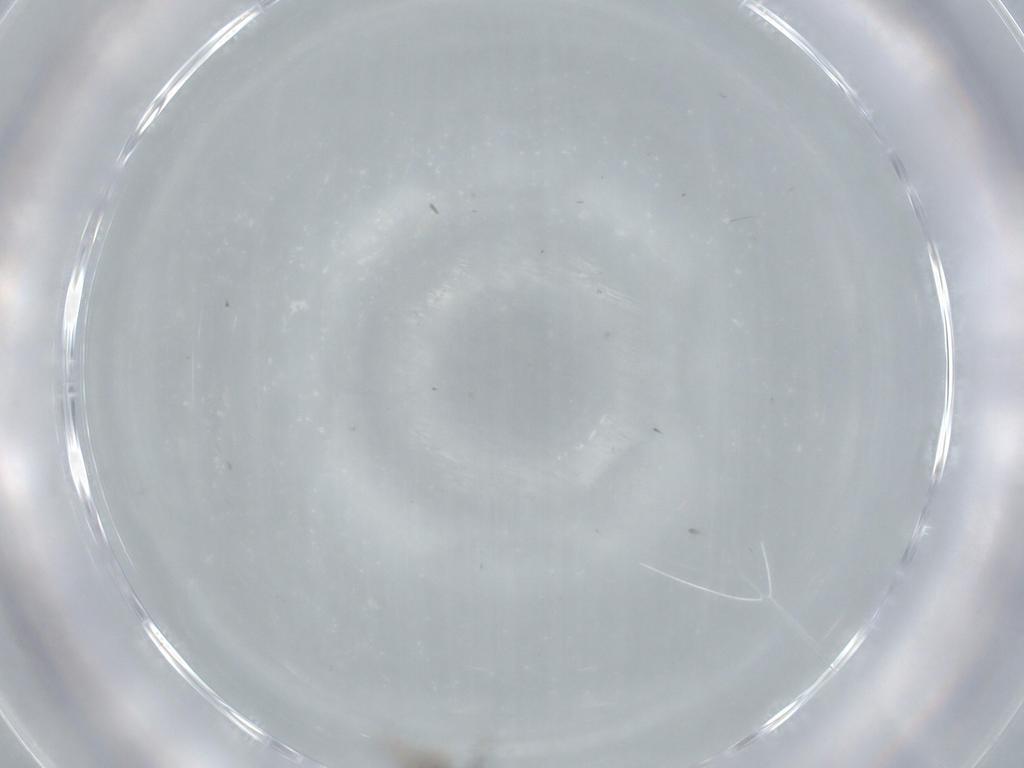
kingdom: Animalia
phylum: Arthropoda
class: Insecta
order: Hymenoptera
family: Figitidae
